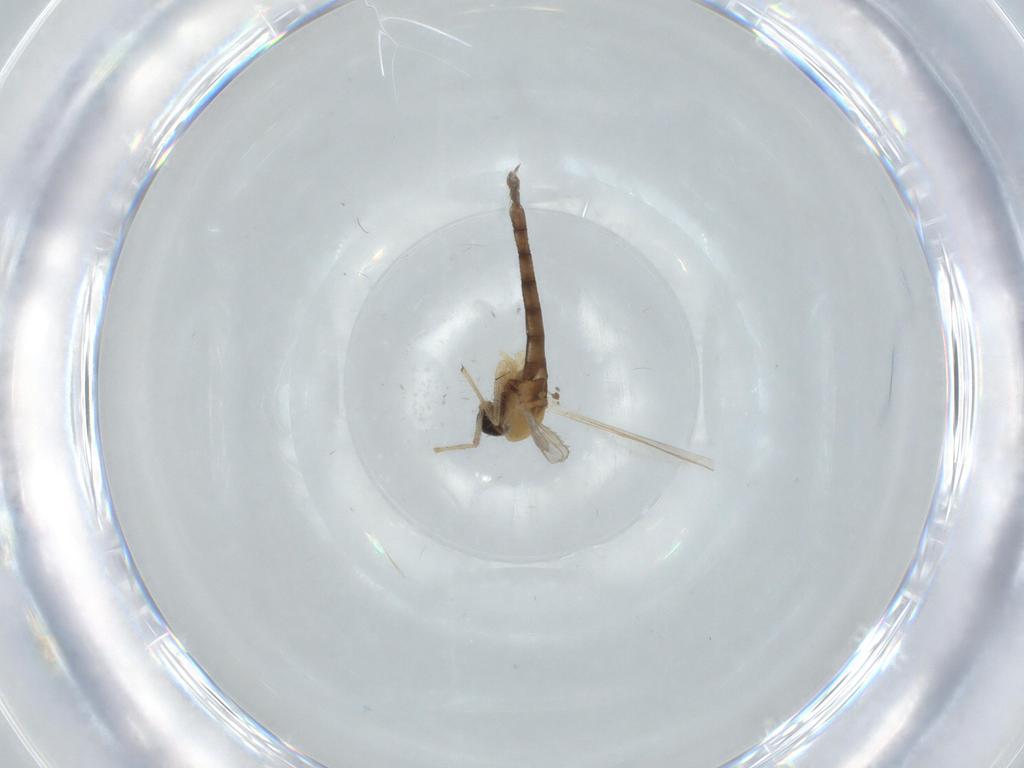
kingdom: Animalia
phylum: Arthropoda
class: Insecta
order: Diptera
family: Chironomidae
